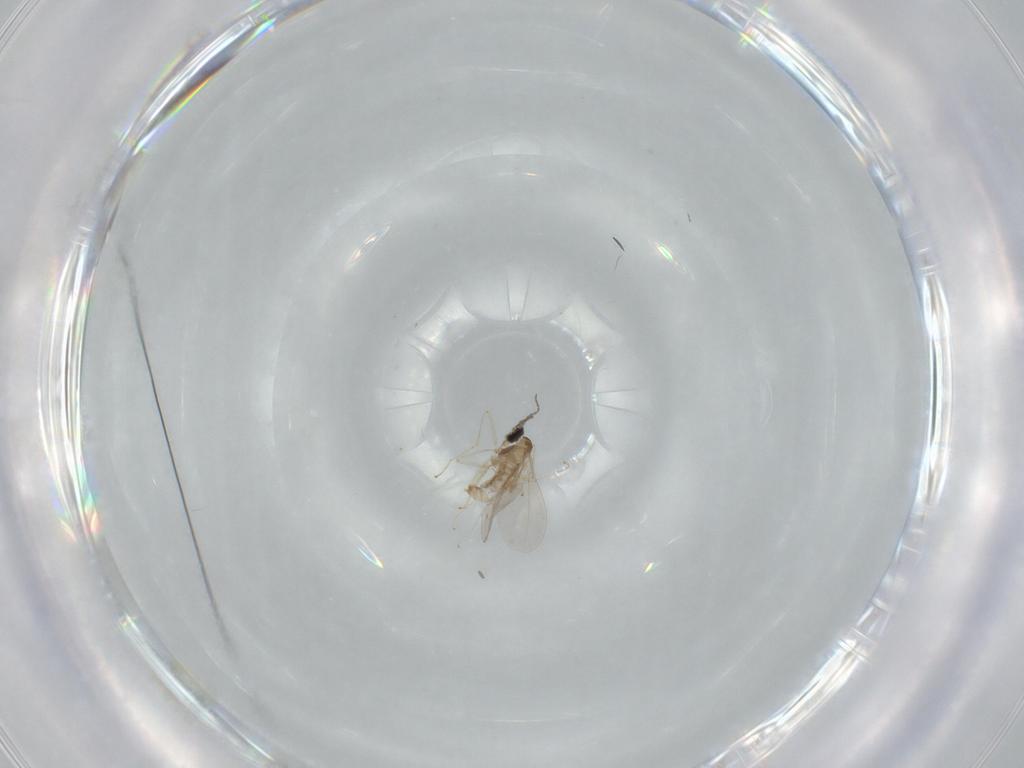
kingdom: Animalia
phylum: Arthropoda
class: Insecta
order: Diptera
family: Cecidomyiidae
